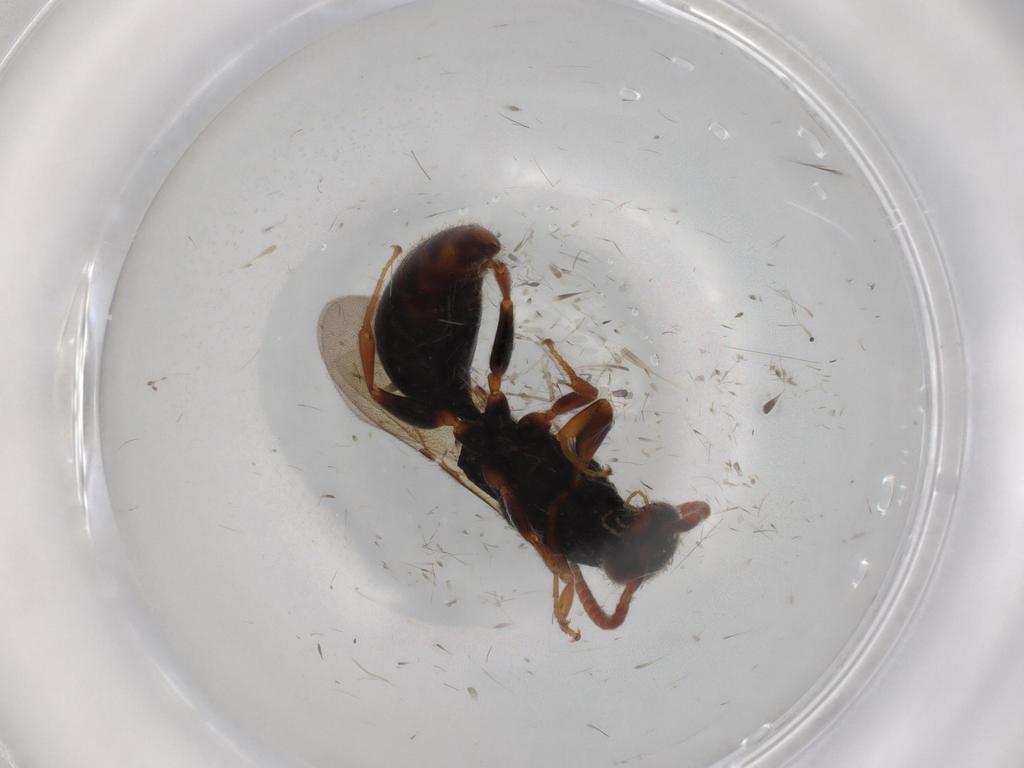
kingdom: Animalia
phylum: Arthropoda
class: Insecta
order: Hymenoptera
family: Bethylidae
